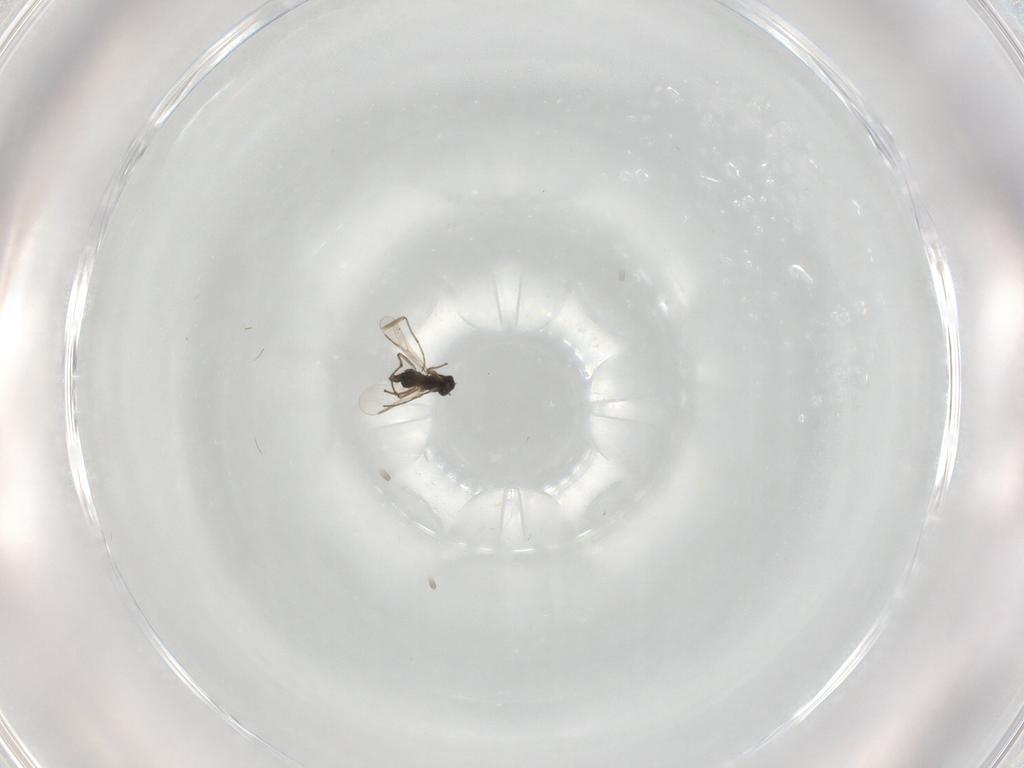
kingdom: Animalia
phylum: Arthropoda
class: Insecta
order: Diptera
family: Chironomidae
